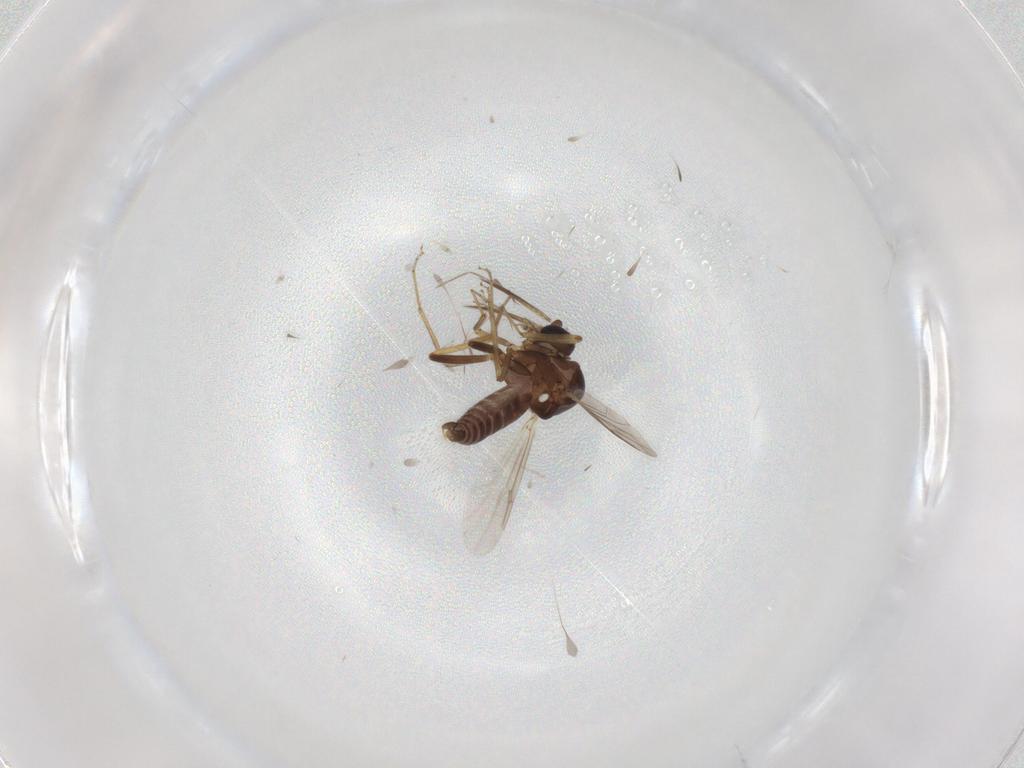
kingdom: Animalia
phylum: Arthropoda
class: Insecta
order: Diptera
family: Ceratopogonidae
